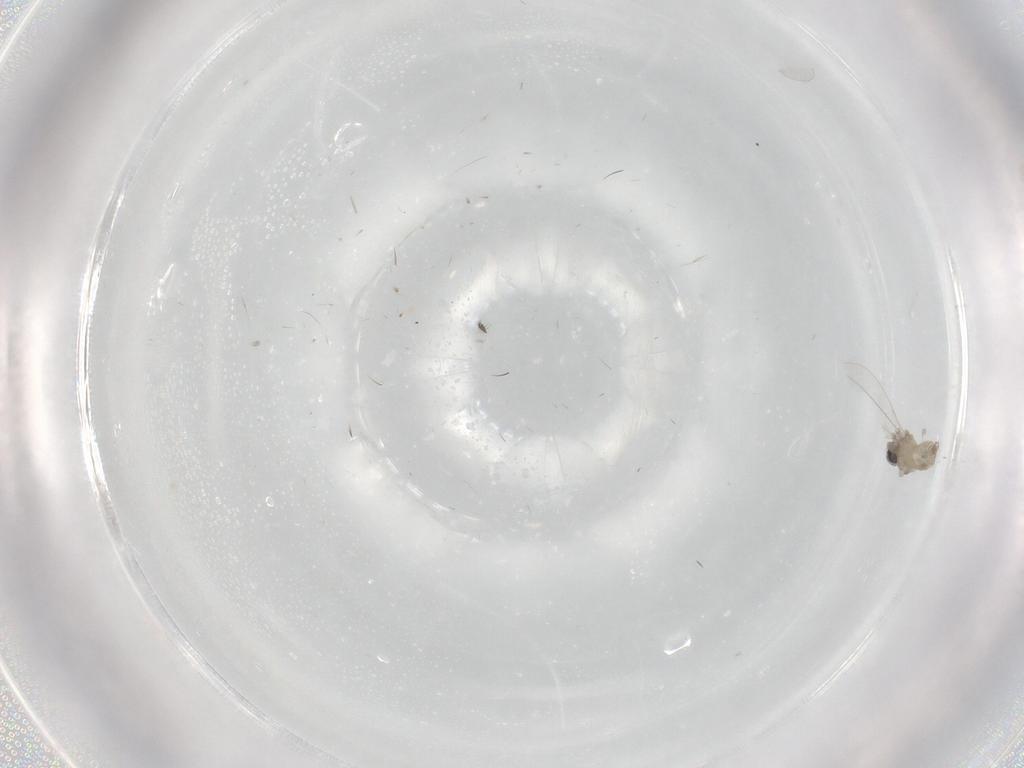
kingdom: Animalia
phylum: Arthropoda
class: Insecta
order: Diptera
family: Cecidomyiidae
